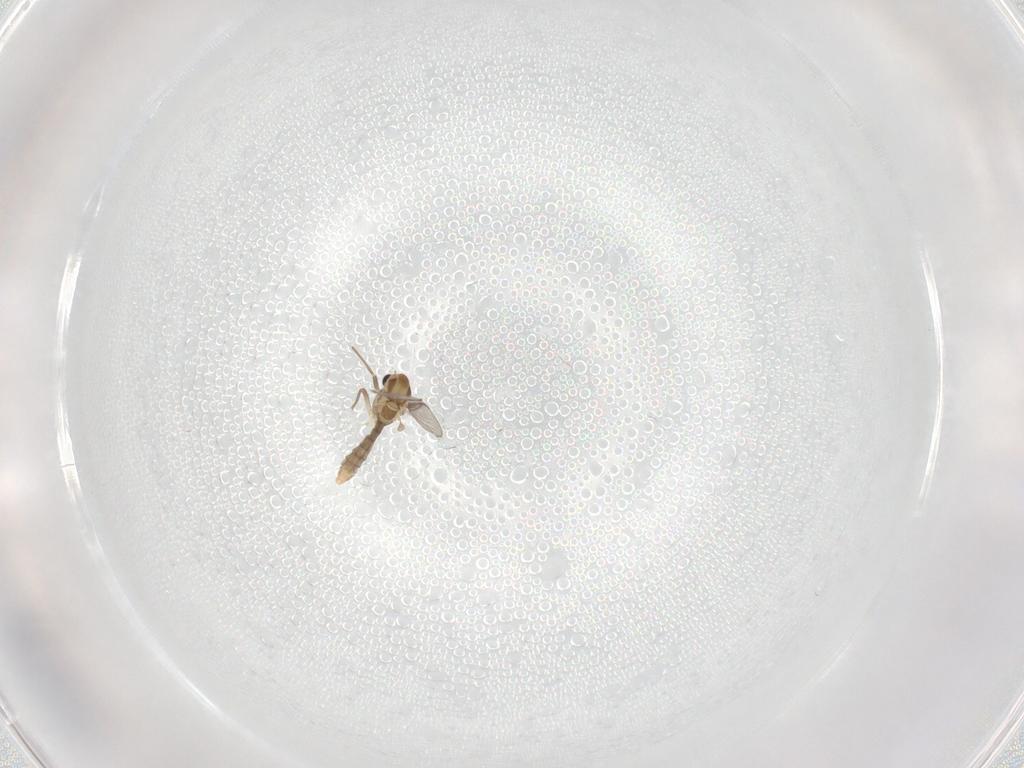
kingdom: Animalia
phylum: Arthropoda
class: Insecta
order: Diptera
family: Chironomidae
